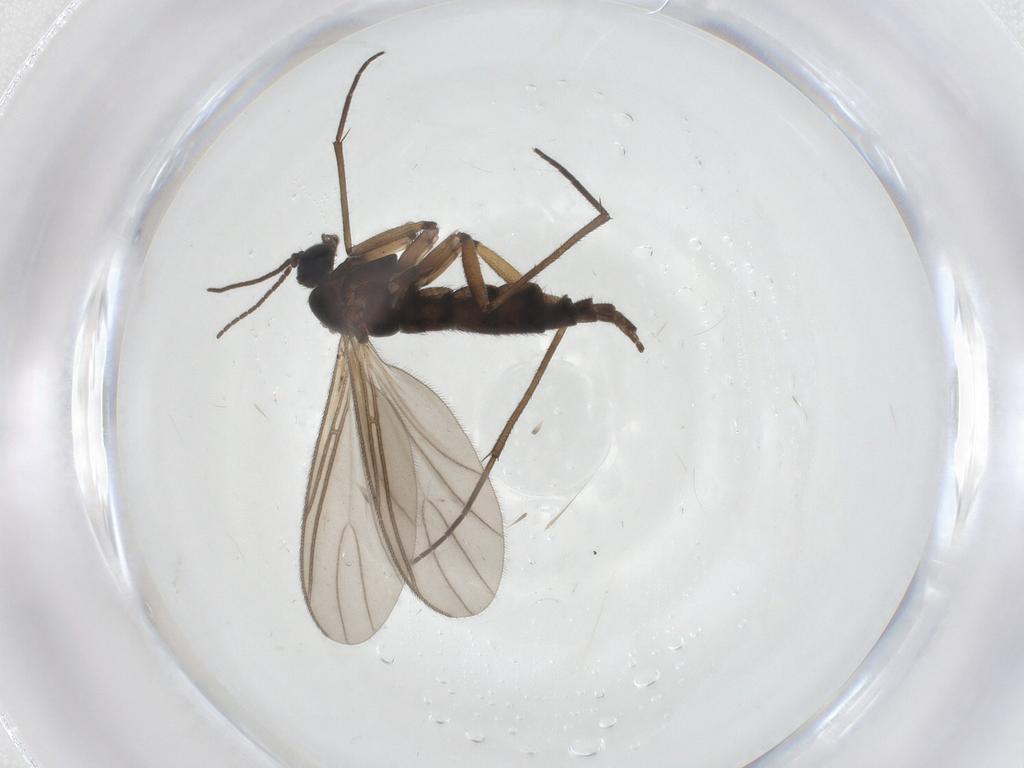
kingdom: Animalia
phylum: Arthropoda
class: Insecta
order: Diptera
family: Sciaridae
